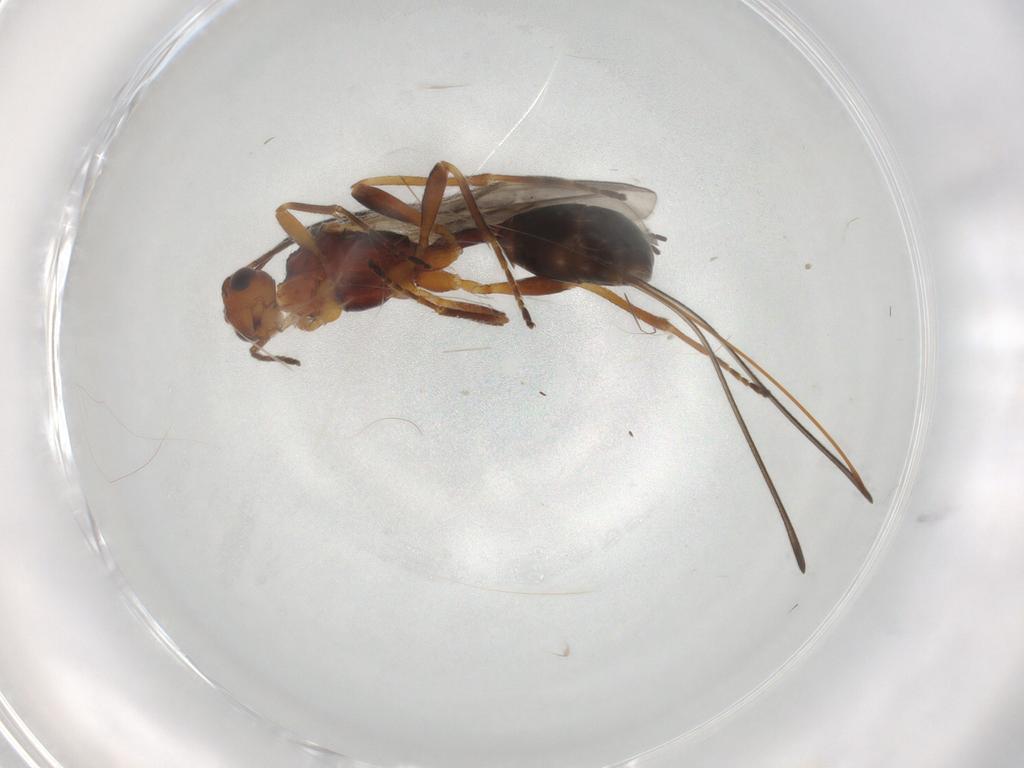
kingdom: Animalia
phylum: Arthropoda
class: Insecta
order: Hymenoptera
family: Braconidae
